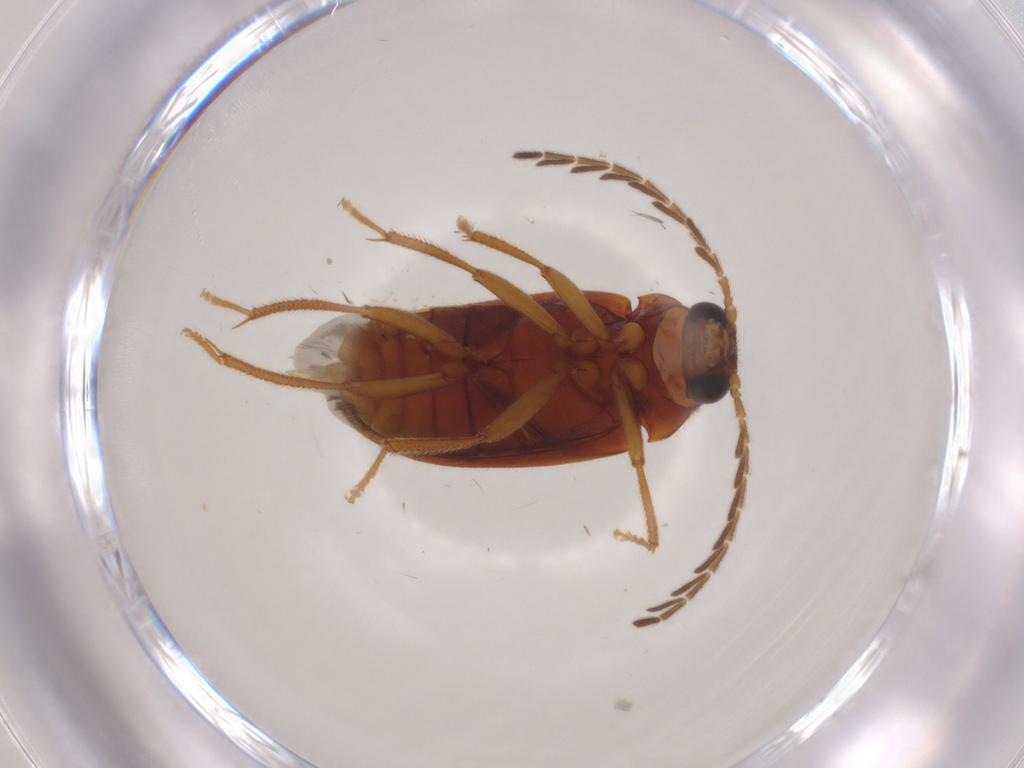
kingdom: Animalia
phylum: Arthropoda
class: Insecta
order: Coleoptera
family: Ptilodactylidae
